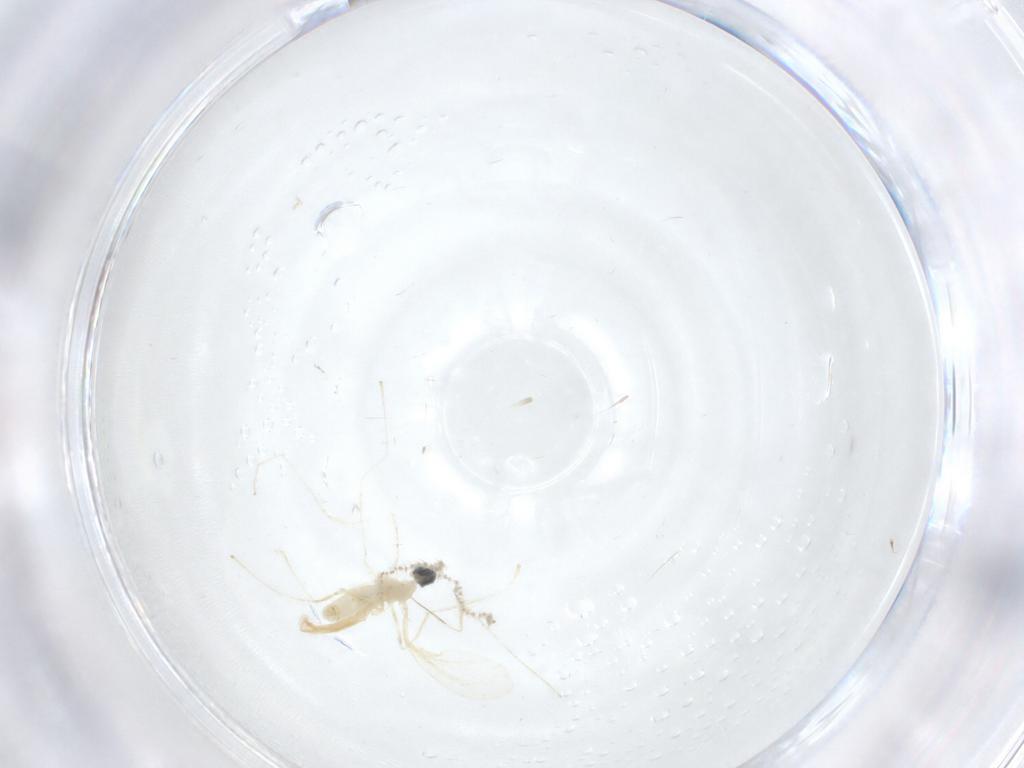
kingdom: Animalia
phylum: Arthropoda
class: Insecta
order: Diptera
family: Cecidomyiidae
